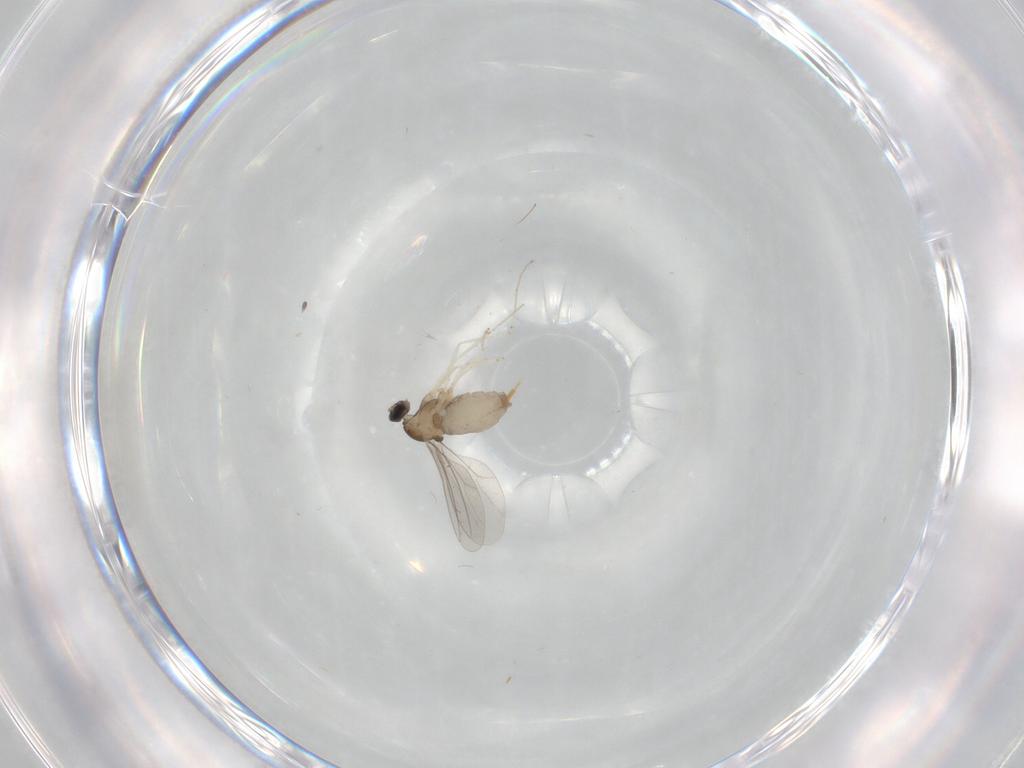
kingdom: Animalia
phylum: Arthropoda
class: Insecta
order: Diptera
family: Cecidomyiidae
